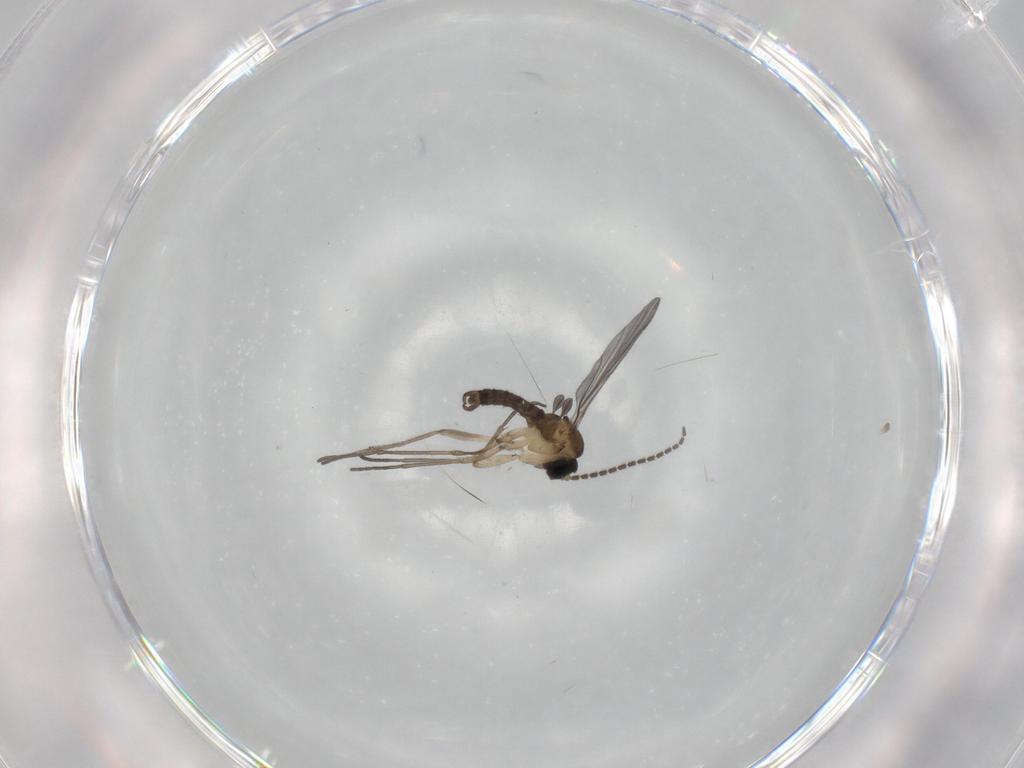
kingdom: Animalia
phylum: Arthropoda
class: Insecta
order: Diptera
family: Sciaridae
